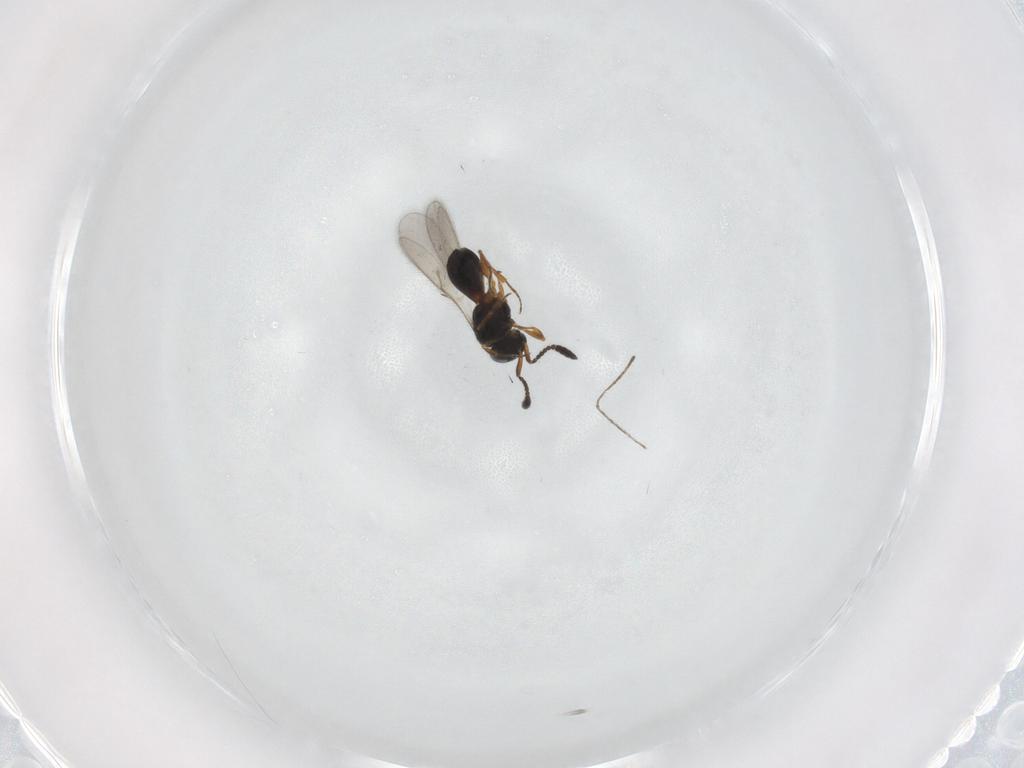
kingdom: Animalia
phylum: Arthropoda
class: Insecta
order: Hymenoptera
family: Scelionidae
